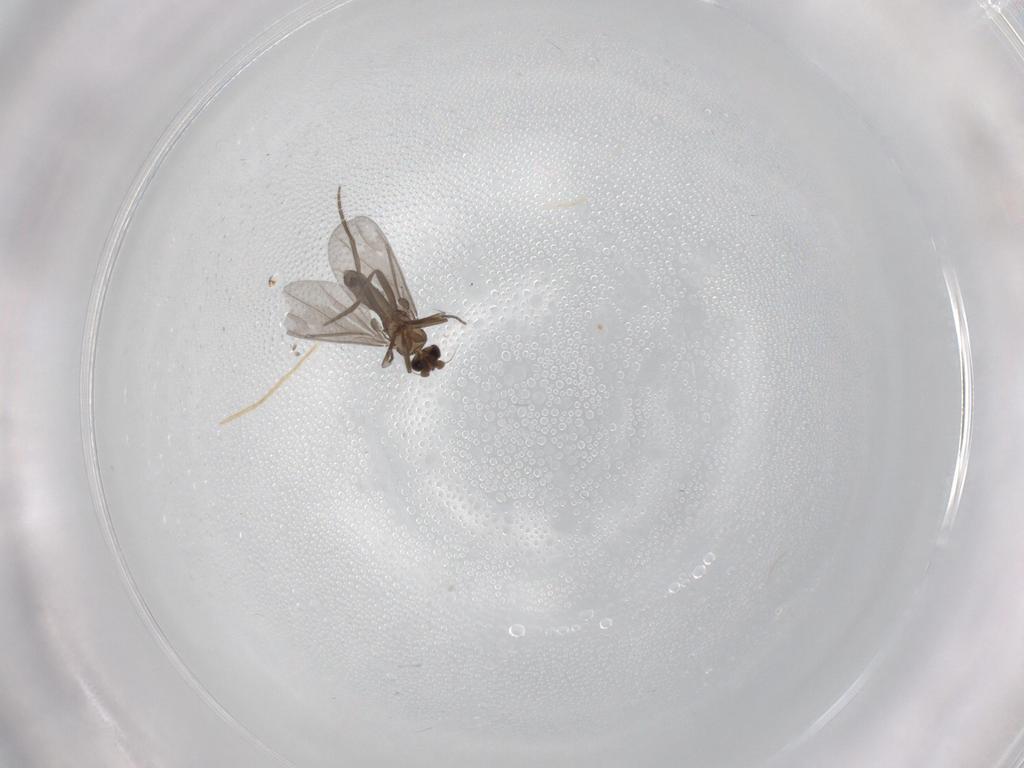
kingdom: Animalia
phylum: Arthropoda
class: Insecta
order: Diptera
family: Phoridae
